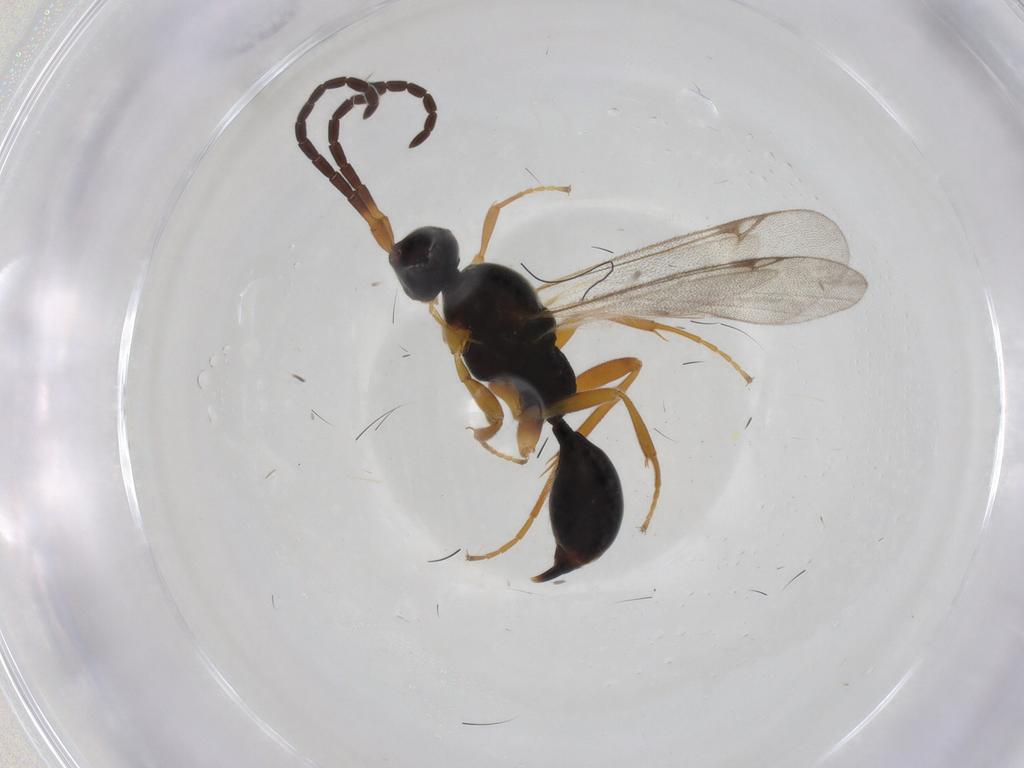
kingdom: Animalia
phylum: Arthropoda
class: Insecta
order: Hymenoptera
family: Proctotrupidae
